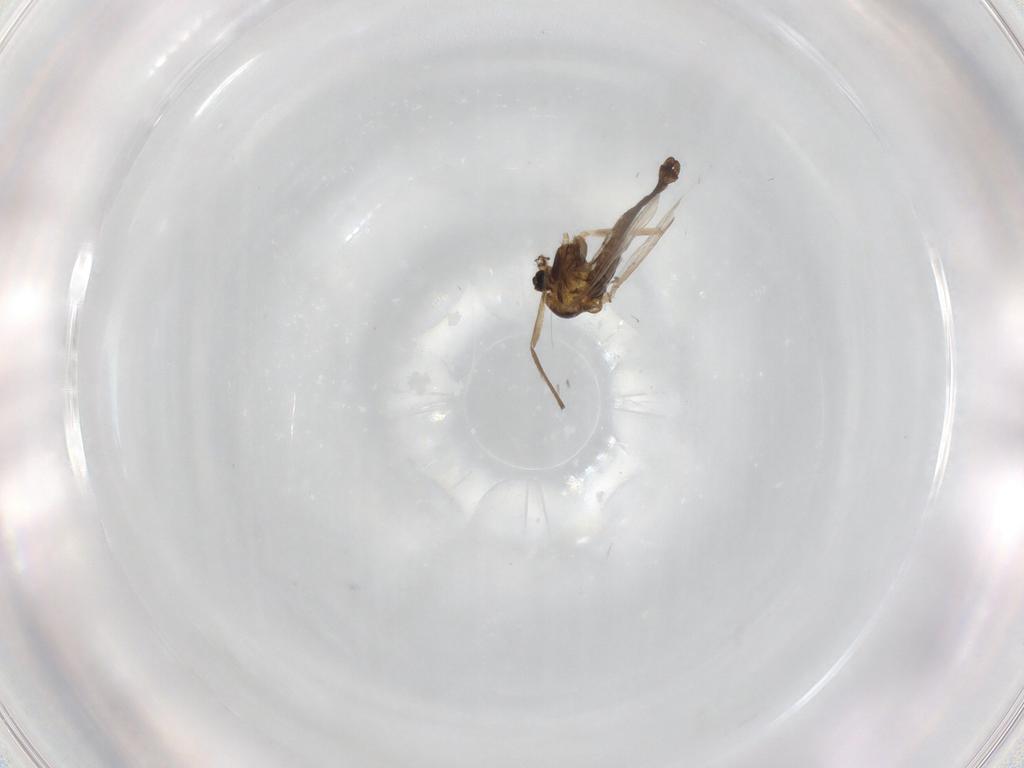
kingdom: Animalia
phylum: Arthropoda
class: Insecta
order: Diptera
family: Chironomidae
